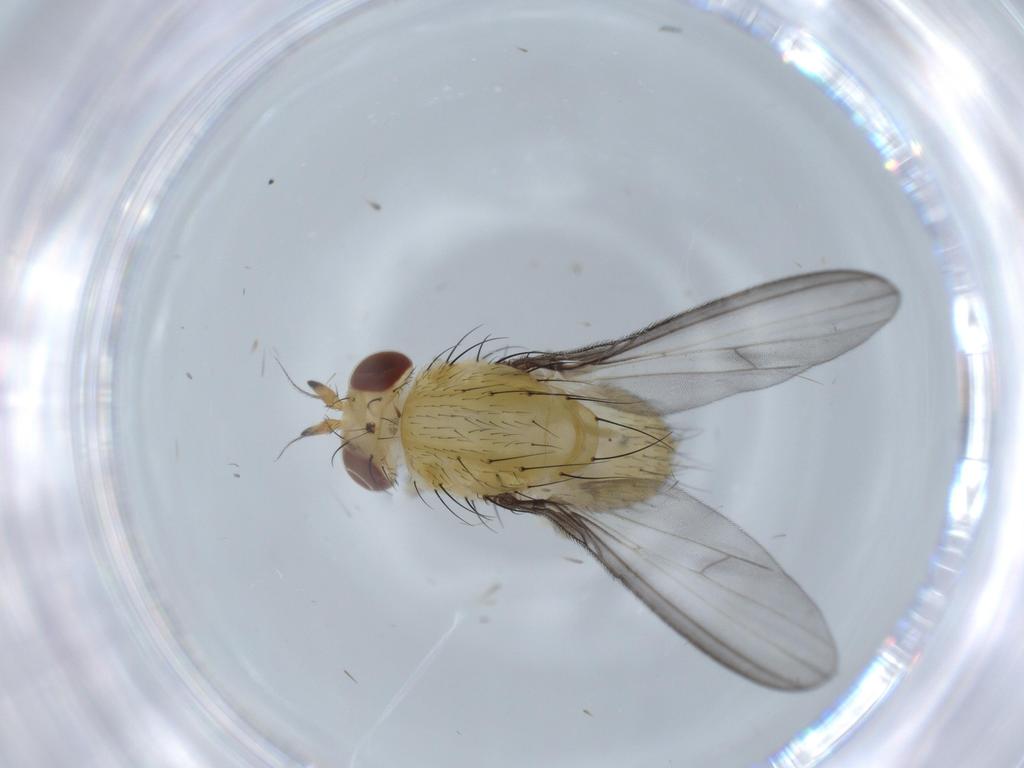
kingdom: Animalia
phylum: Arthropoda
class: Insecta
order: Diptera
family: Lauxaniidae
